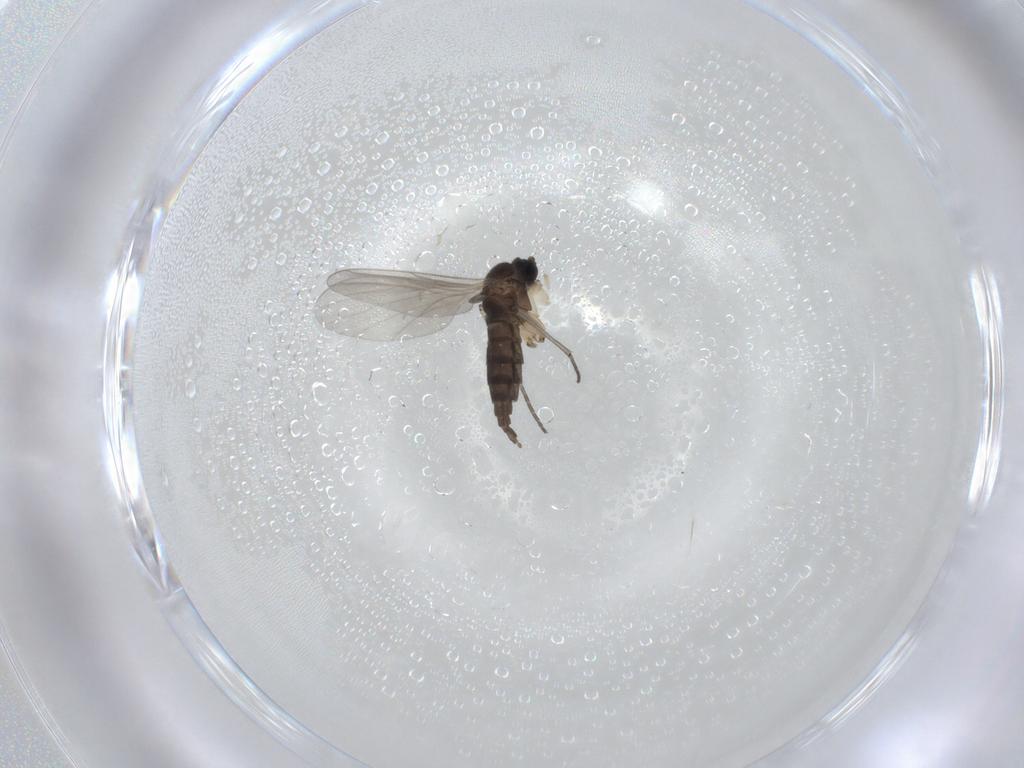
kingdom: Animalia
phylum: Arthropoda
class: Insecta
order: Diptera
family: Sciaridae
